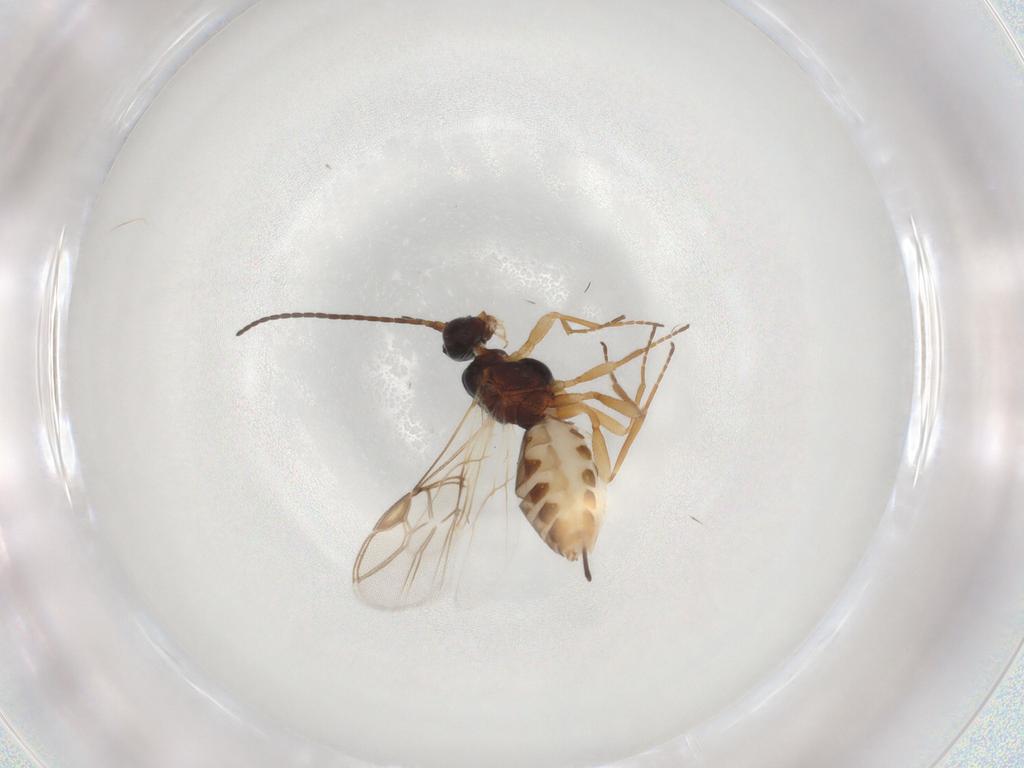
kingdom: Animalia
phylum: Arthropoda
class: Insecta
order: Hymenoptera
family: Braconidae
